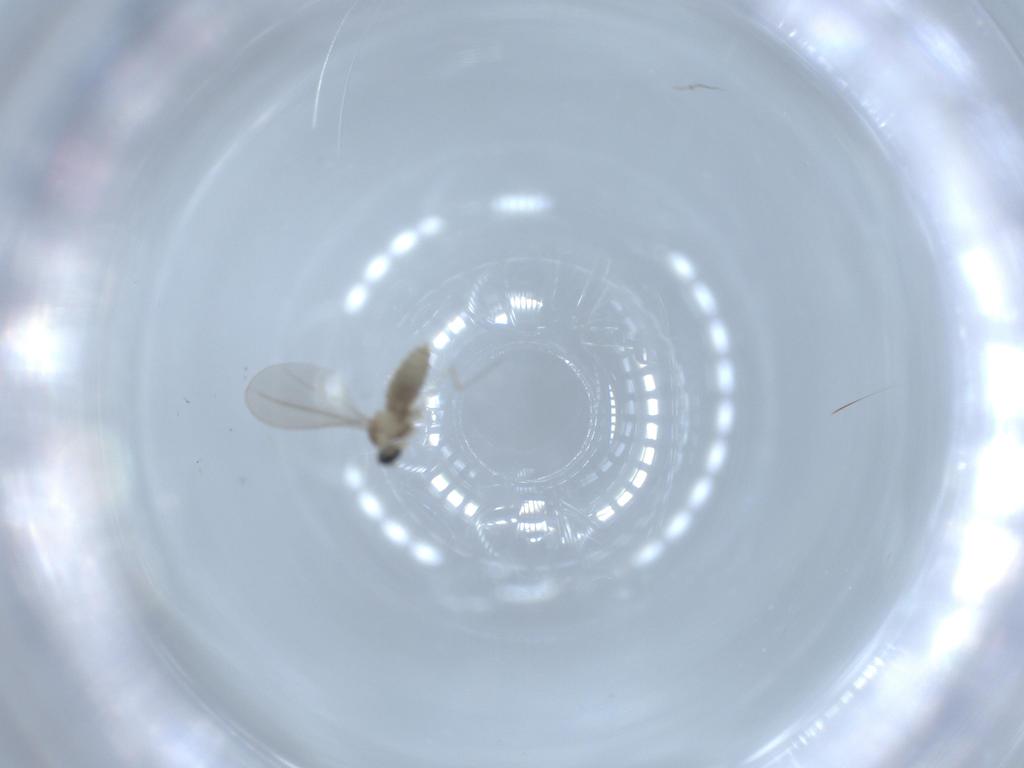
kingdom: Animalia
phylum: Arthropoda
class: Insecta
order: Diptera
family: Cecidomyiidae
